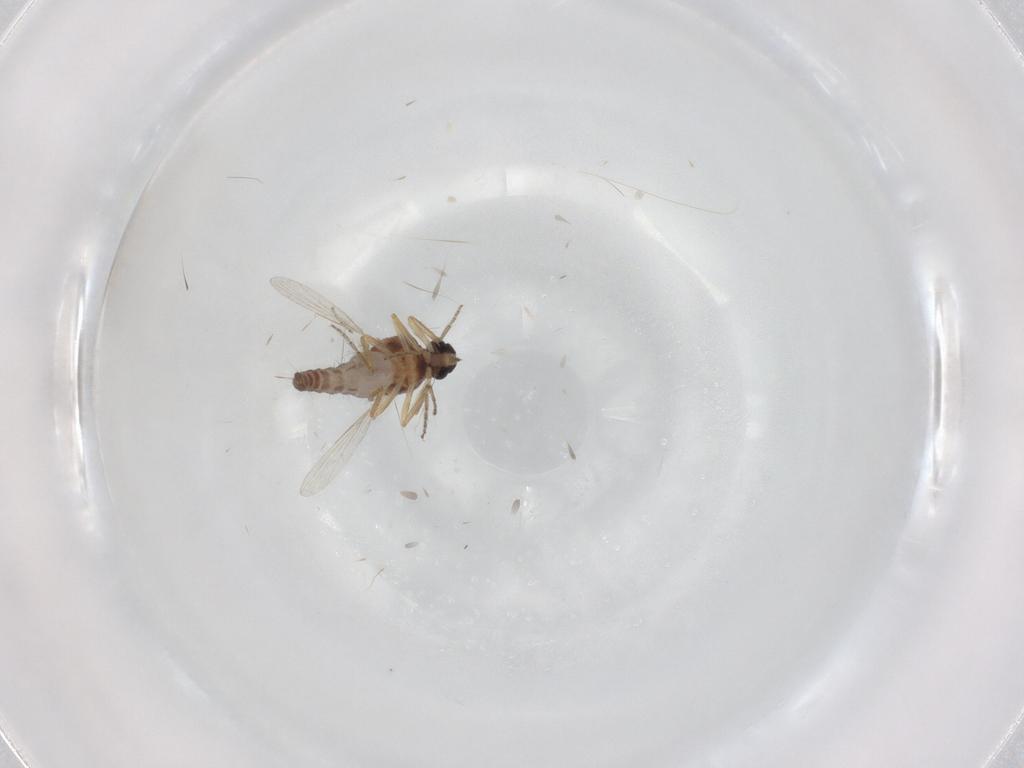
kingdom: Animalia
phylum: Arthropoda
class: Insecta
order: Diptera
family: Ceratopogonidae
